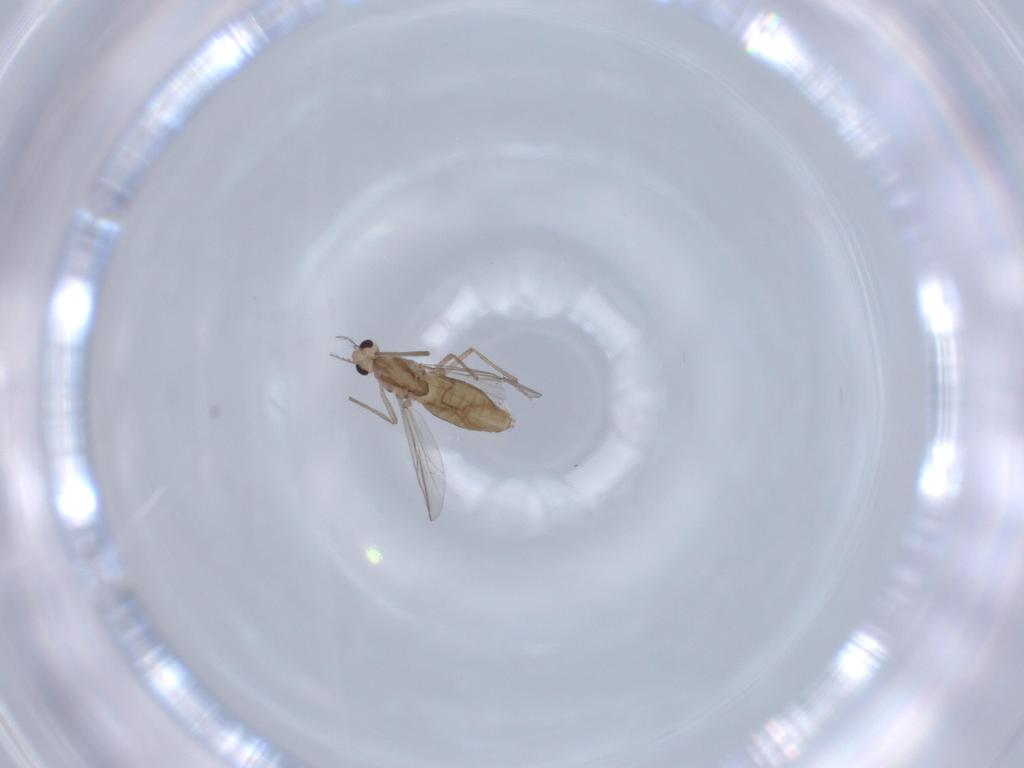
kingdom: Animalia
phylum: Arthropoda
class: Insecta
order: Diptera
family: Chironomidae
